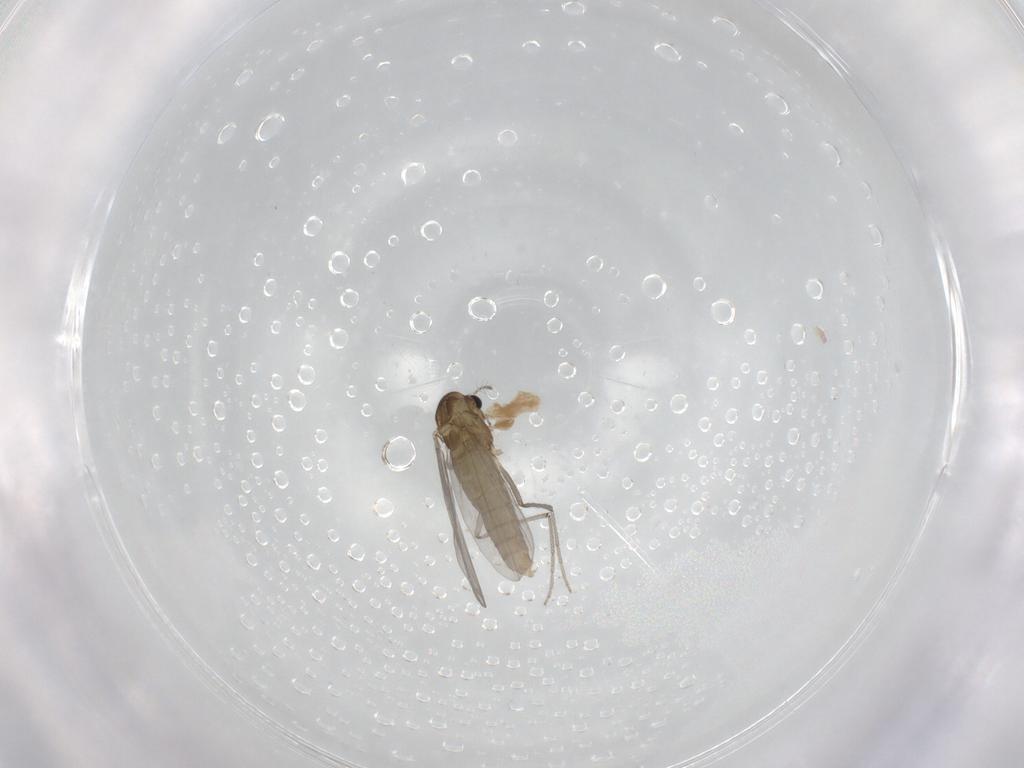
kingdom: Animalia
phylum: Arthropoda
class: Insecta
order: Diptera
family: Chironomidae
